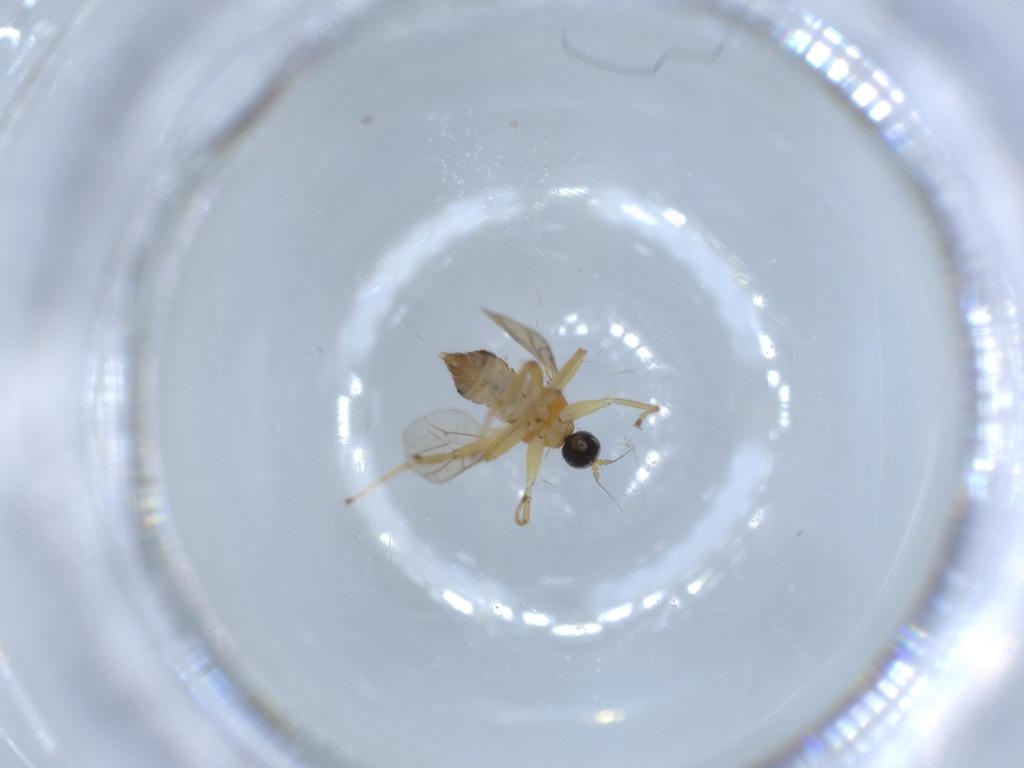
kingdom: Animalia
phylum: Arthropoda
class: Insecta
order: Diptera
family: Hybotidae
